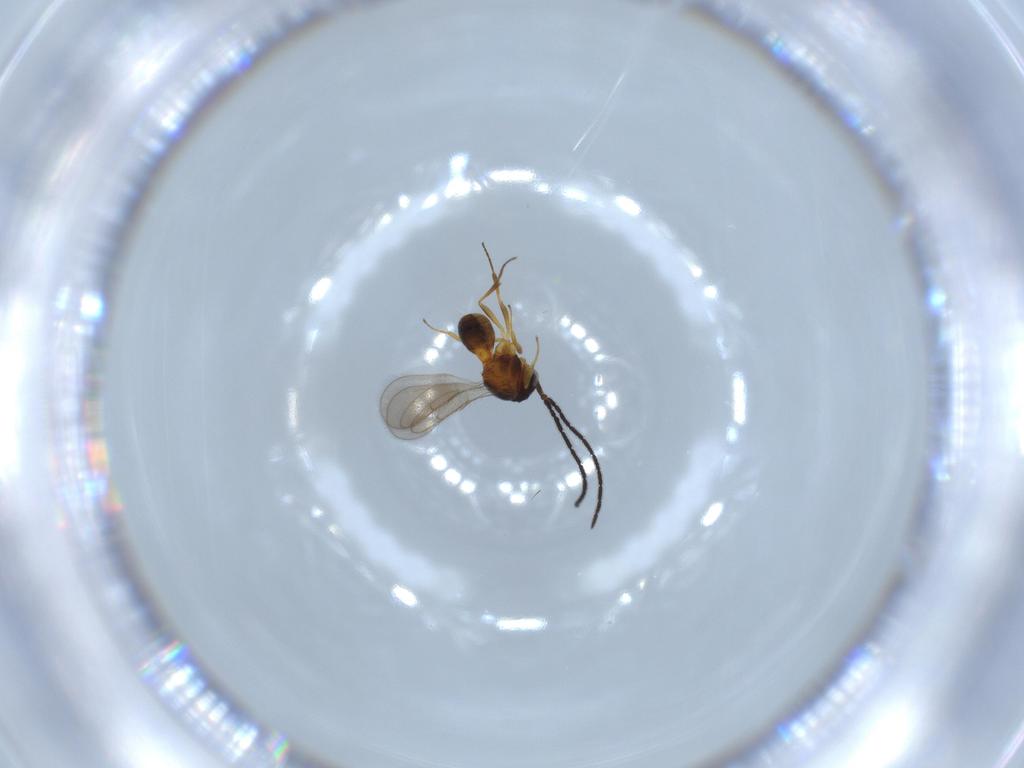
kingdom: Animalia
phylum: Arthropoda
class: Insecta
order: Hymenoptera
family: Scelionidae
